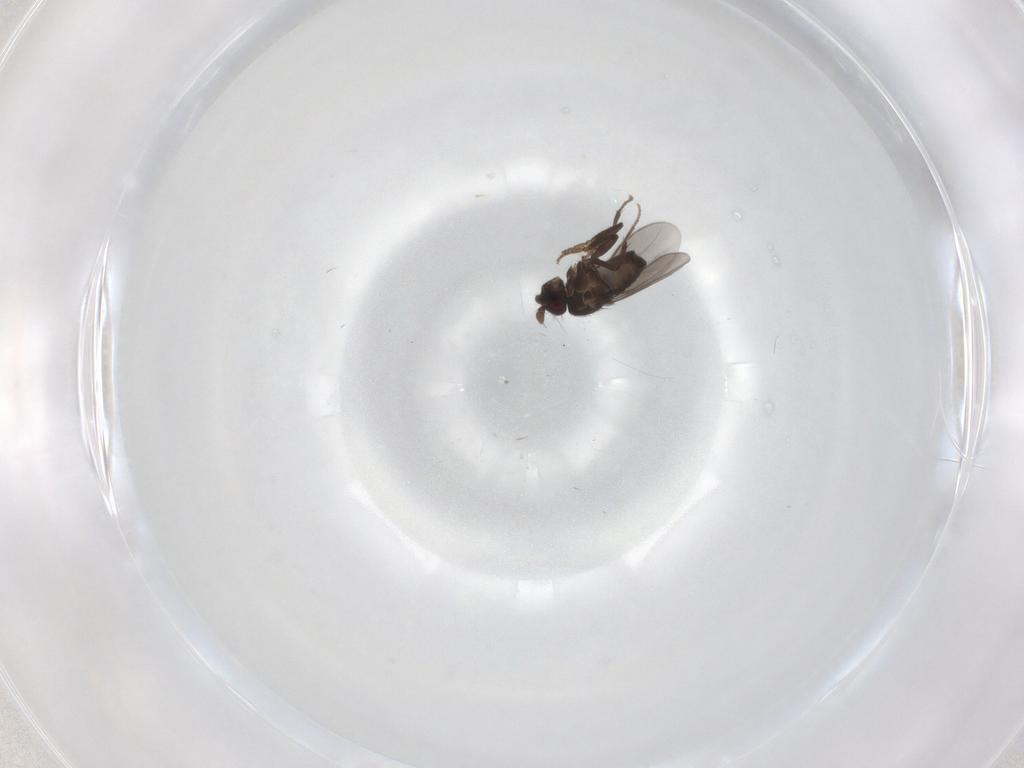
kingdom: Animalia
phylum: Arthropoda
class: Insecta
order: Diptera
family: Sphaeroceridae
